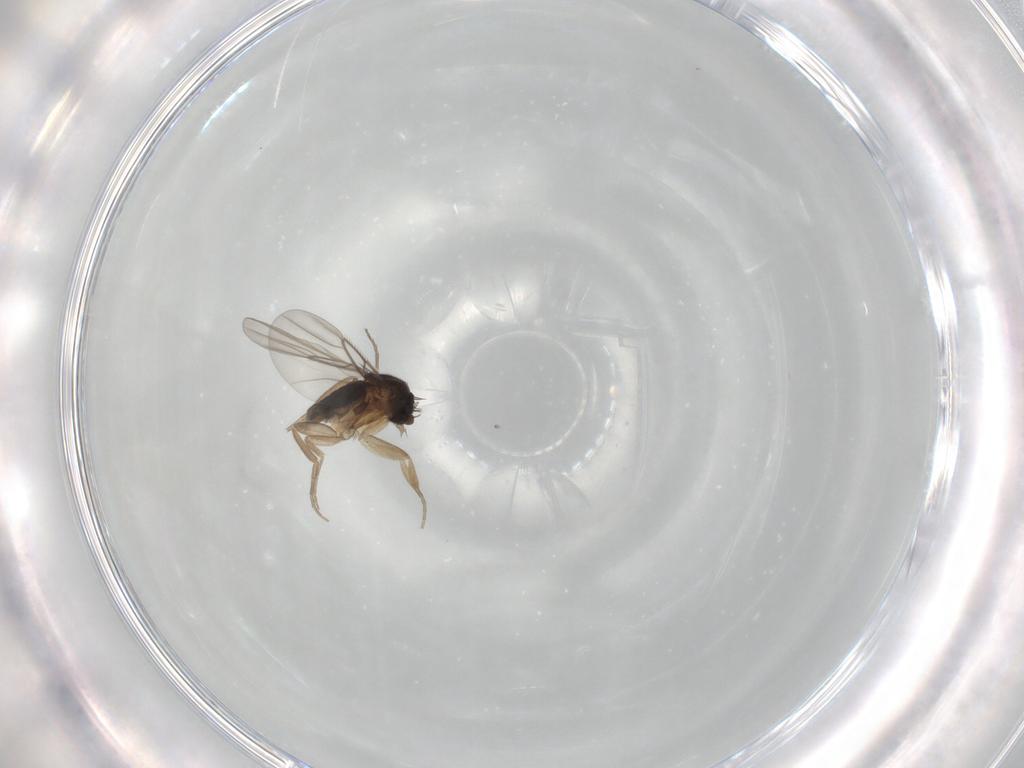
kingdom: Animalia
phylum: Arthropoda
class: Insecta
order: Diptera
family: Phoridae
